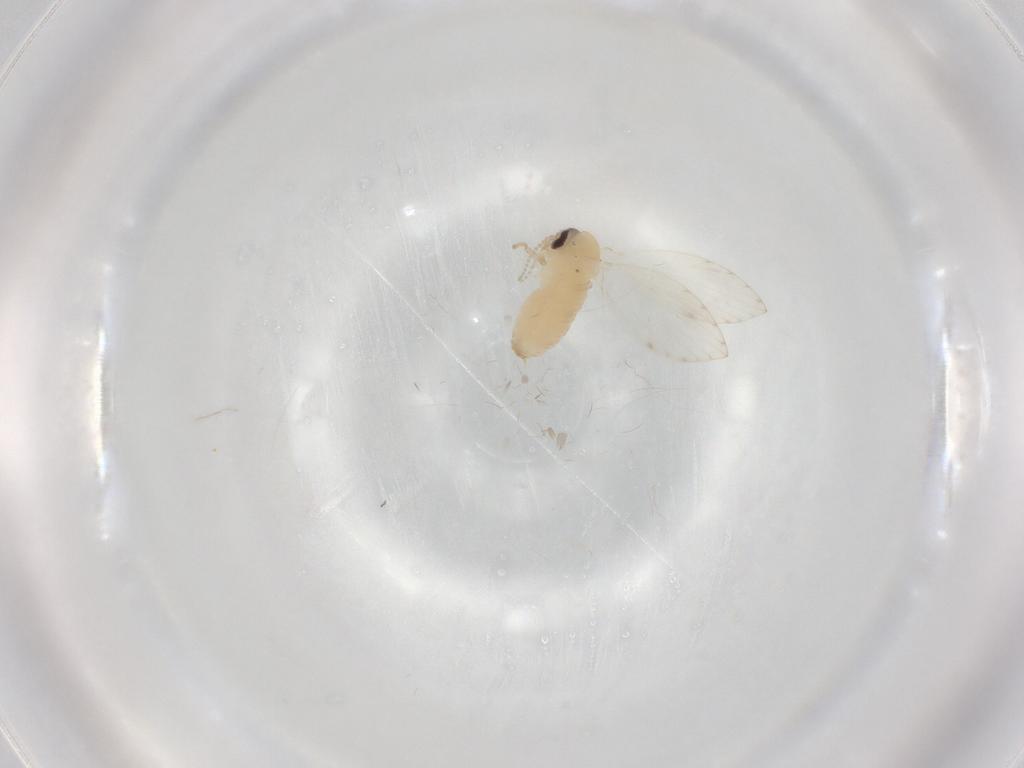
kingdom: Animalia
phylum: Arthropoda
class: Insecta
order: Diptera
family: Psychodidae
